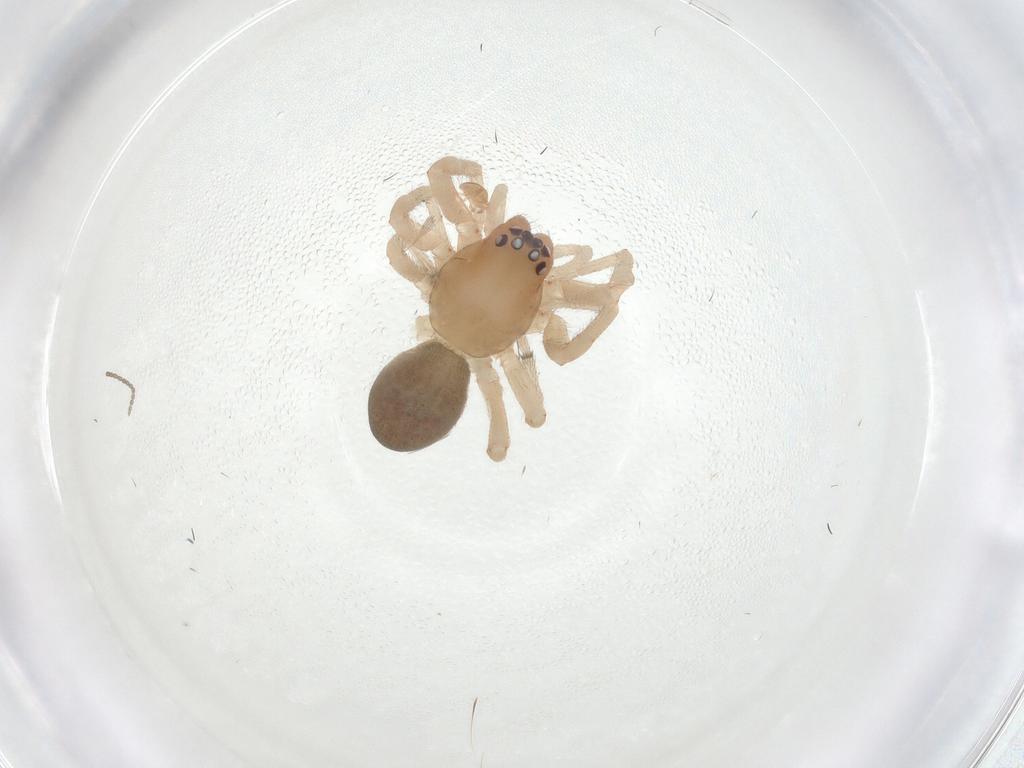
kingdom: Animalia
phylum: Arthropoda
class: Arachnida
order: Araneae
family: Trachelidae
